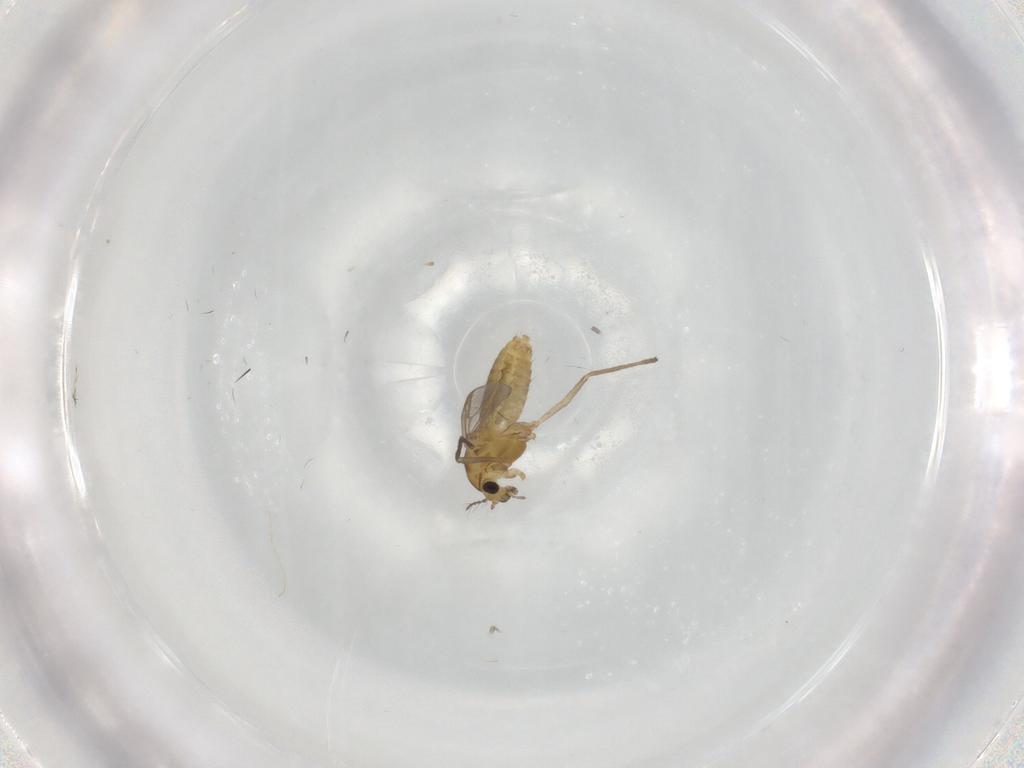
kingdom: Animalia
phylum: Arthropoda
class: Insecta
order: Diptera
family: Chironomidae
